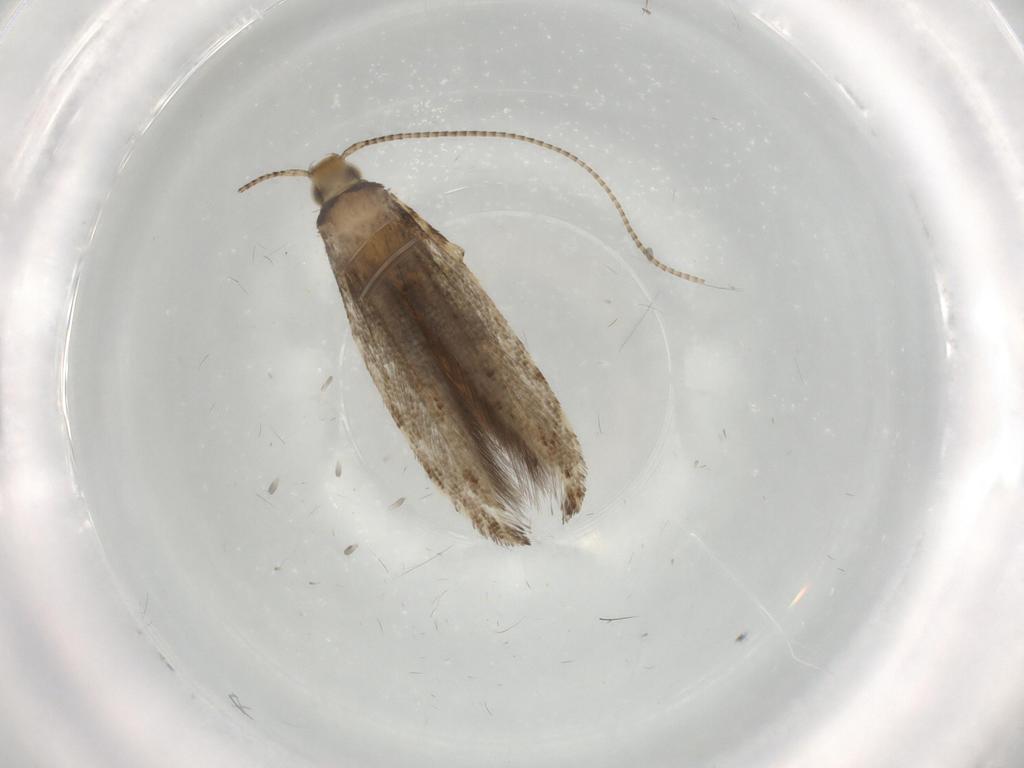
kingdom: Animalia
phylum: Arthropoda
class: Insecta
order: Lepidoptera
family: Gracillariidae
